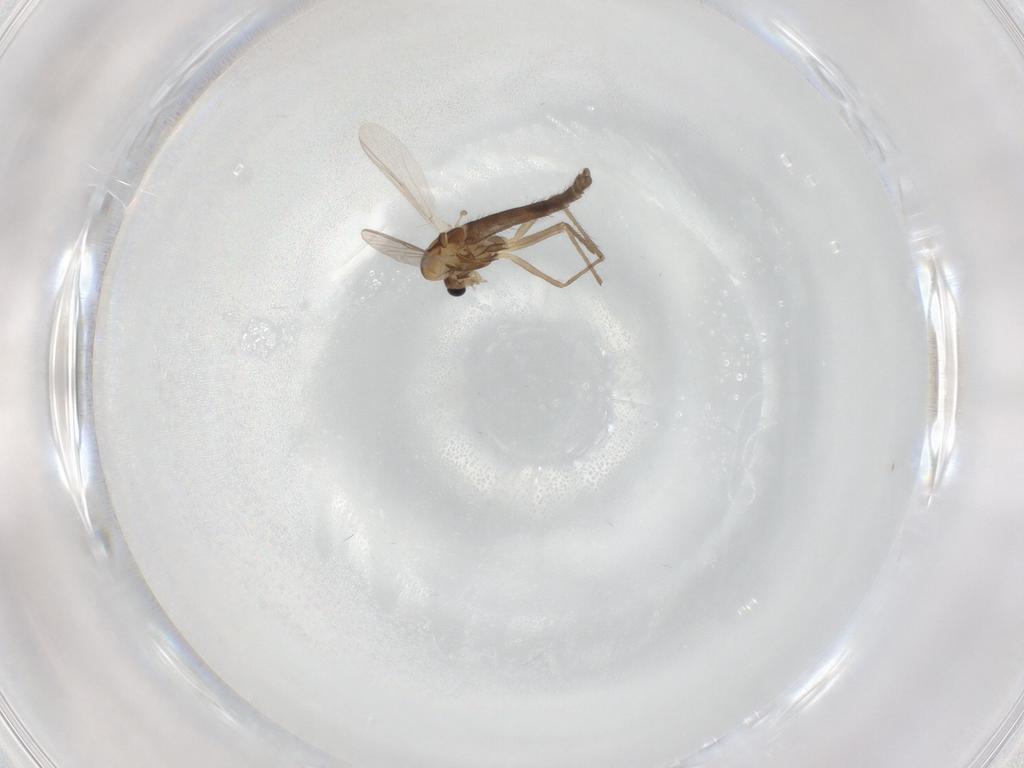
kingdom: Animalia
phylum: Arthropoda
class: Insecta
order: Diptera
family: Chironomidae
